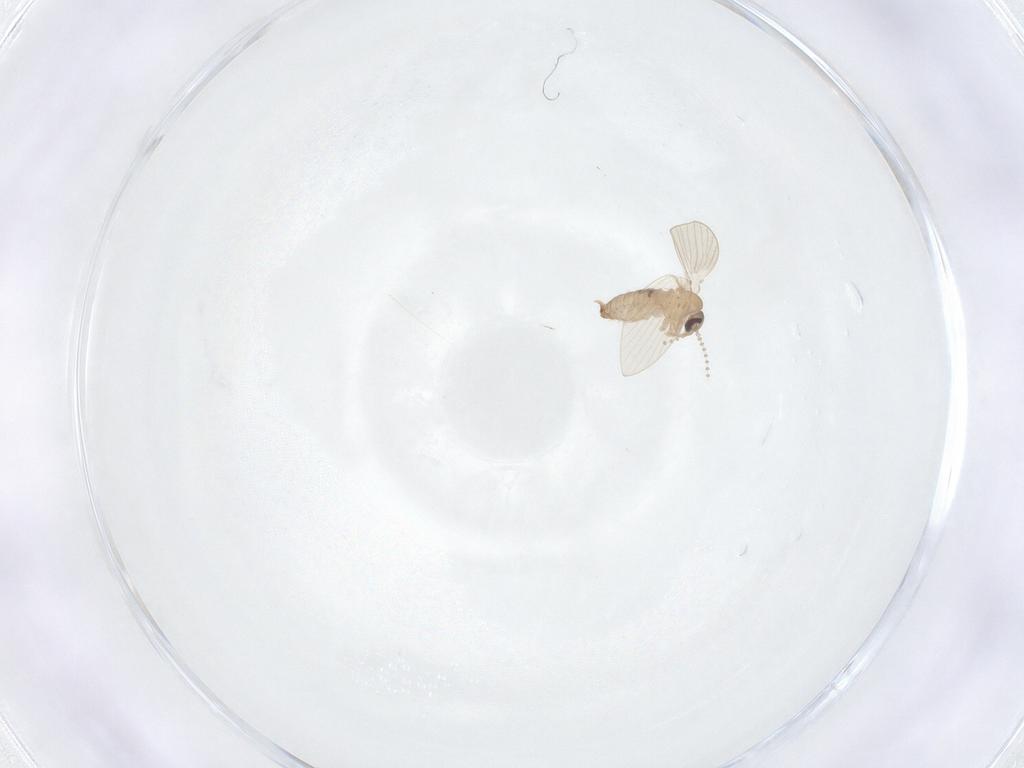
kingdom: Animalia
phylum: Arthropoda
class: Insecta
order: Diptera
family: Psychodidae
